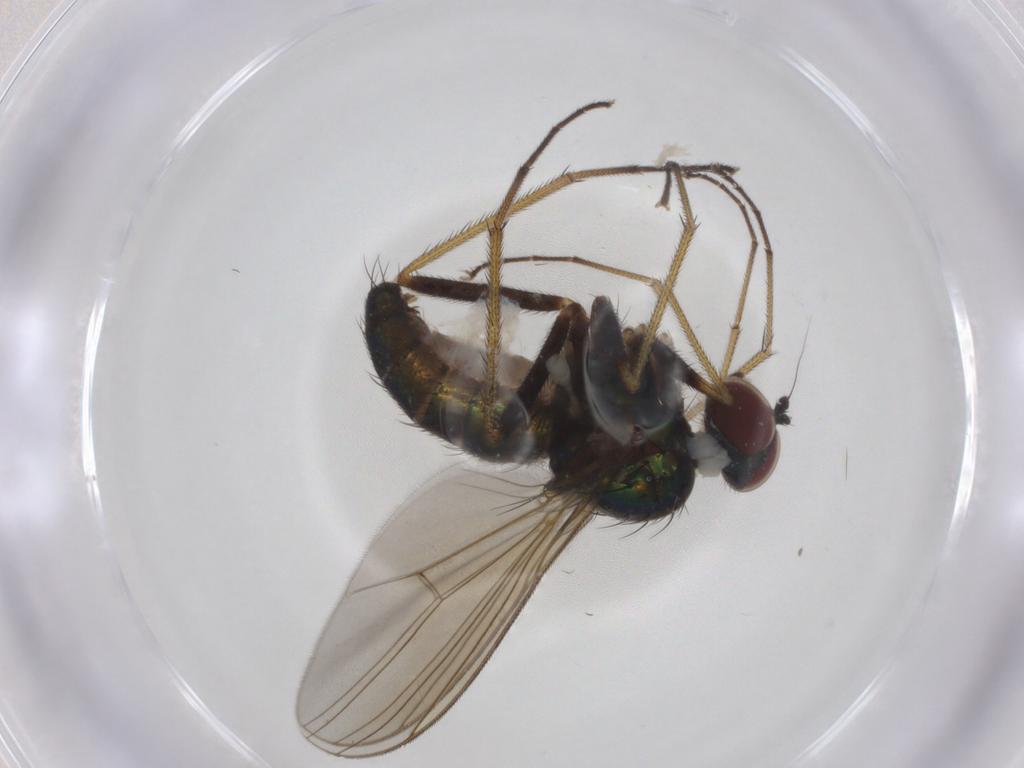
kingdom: Animalia
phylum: Arthropoda
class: Insecta
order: Diptera
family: Dolichopodidae
